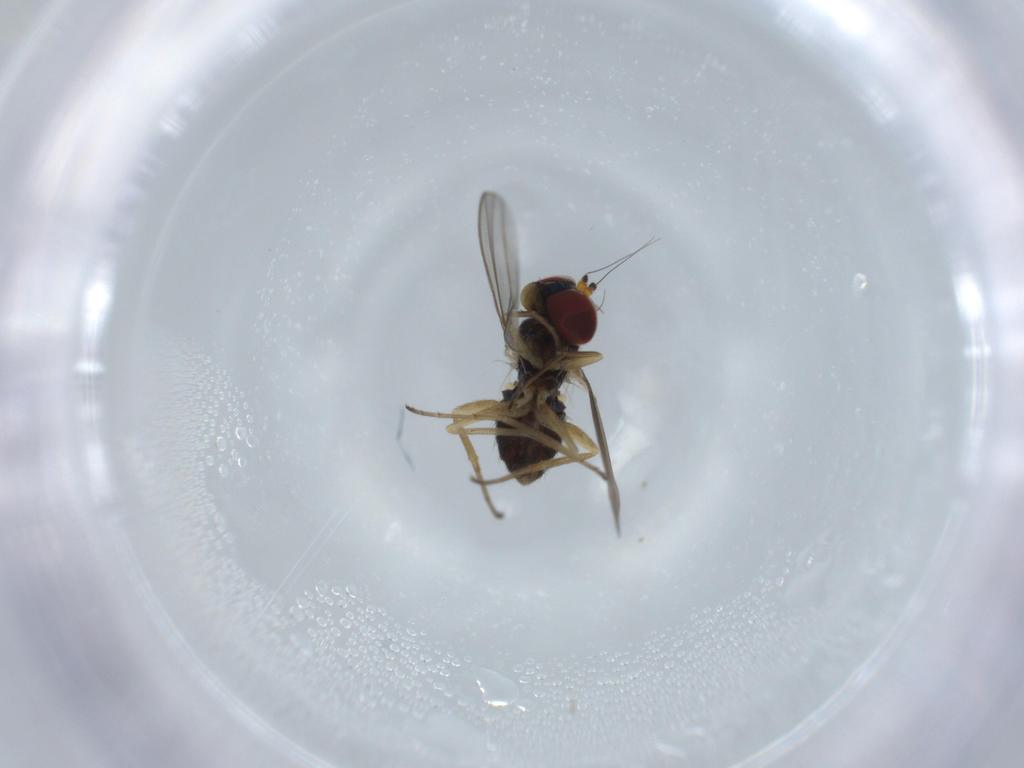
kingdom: Animalia
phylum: Arthropoda
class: Insecta
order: Diptera
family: Dolichopodidae
